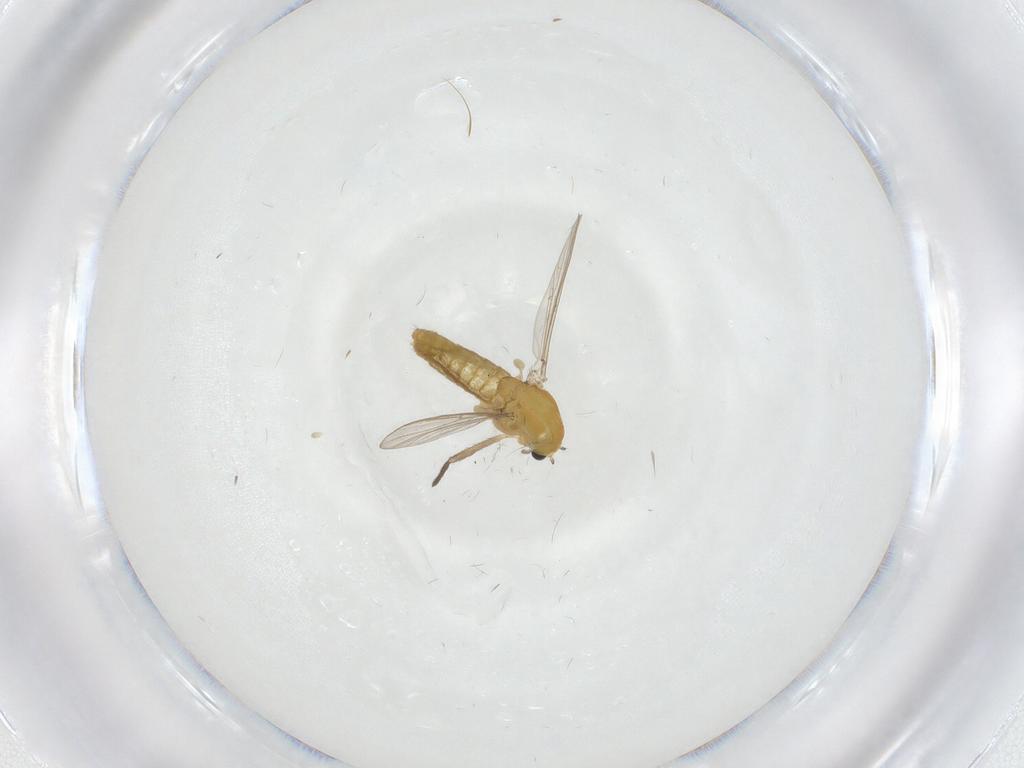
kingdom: Animalia
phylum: Arthropoda
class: Insecta
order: Diptera
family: Chironomidae
